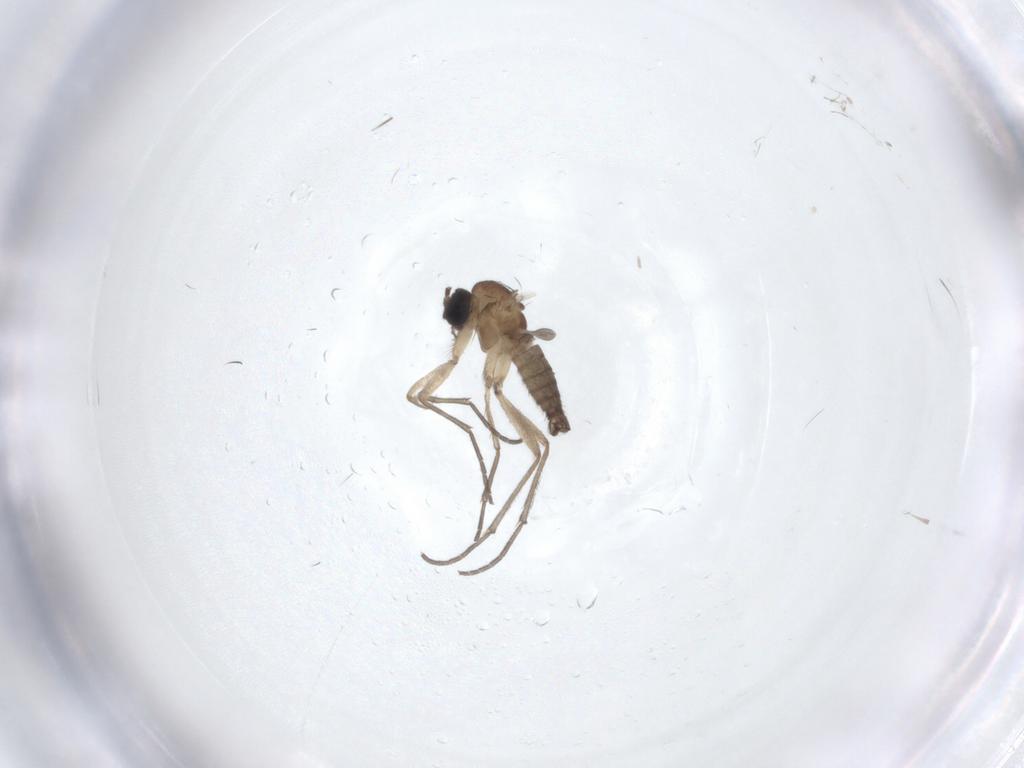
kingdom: Animalia
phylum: Arthropoda
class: Insecta
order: Diptera
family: Sciaridae
